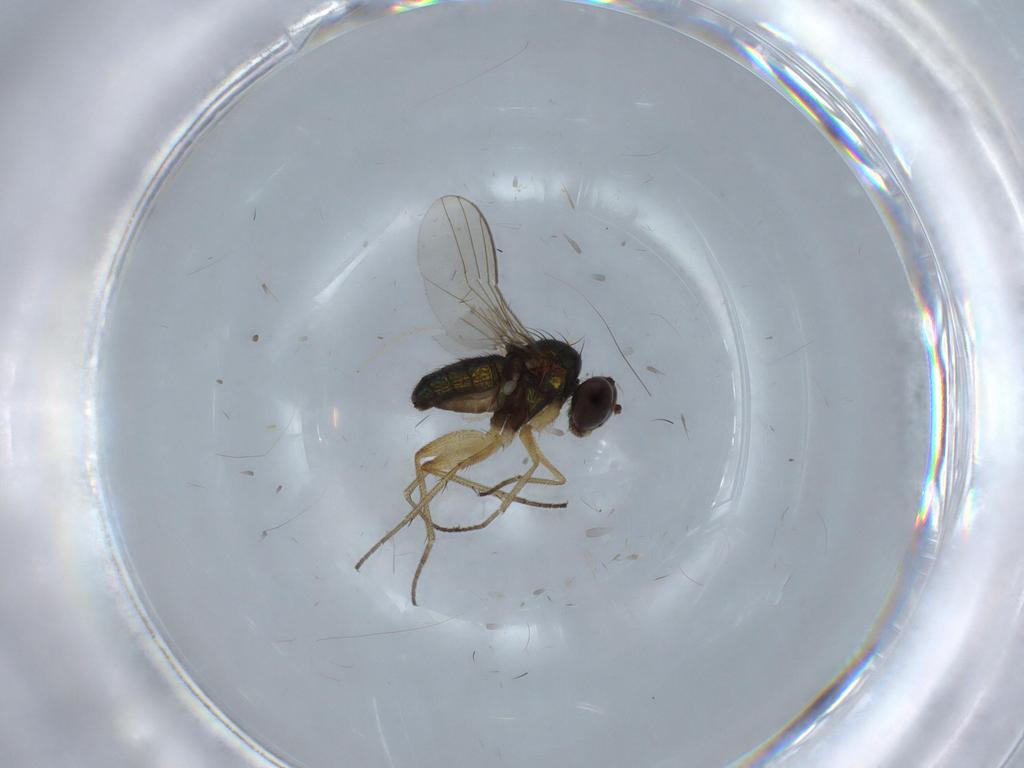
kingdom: Animalia
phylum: Arthropoda
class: Insecta
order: Diptera
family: Chironomidae
